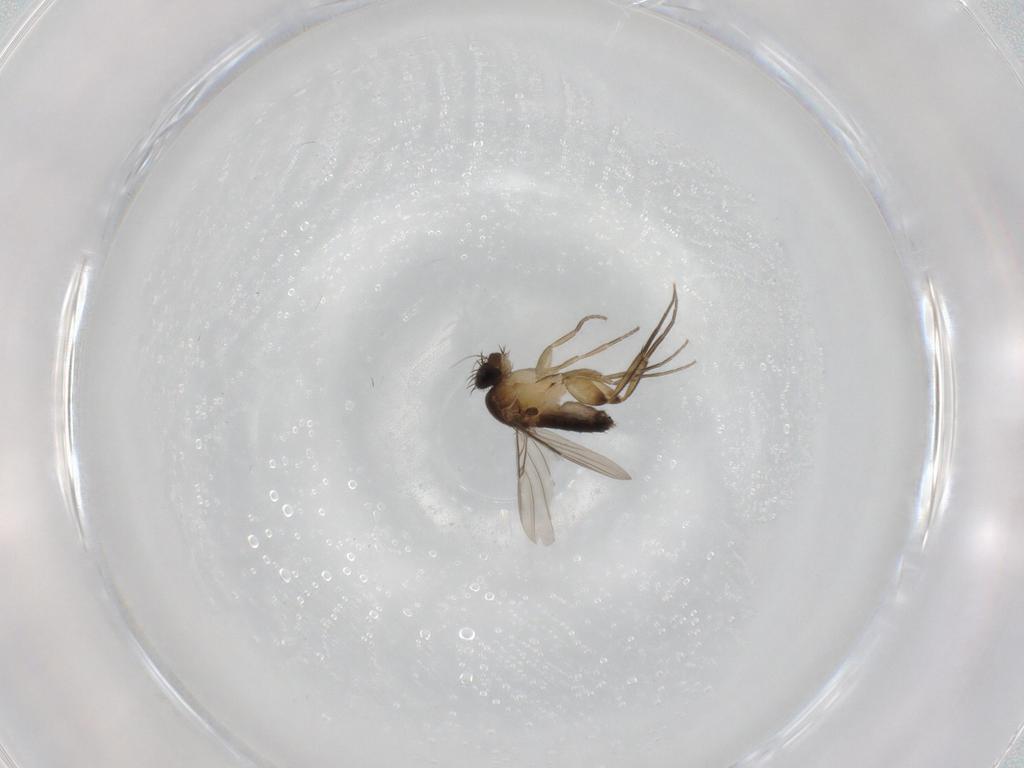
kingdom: Animalia
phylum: Arthropoda
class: Insecta
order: Diptera
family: Phoridae
